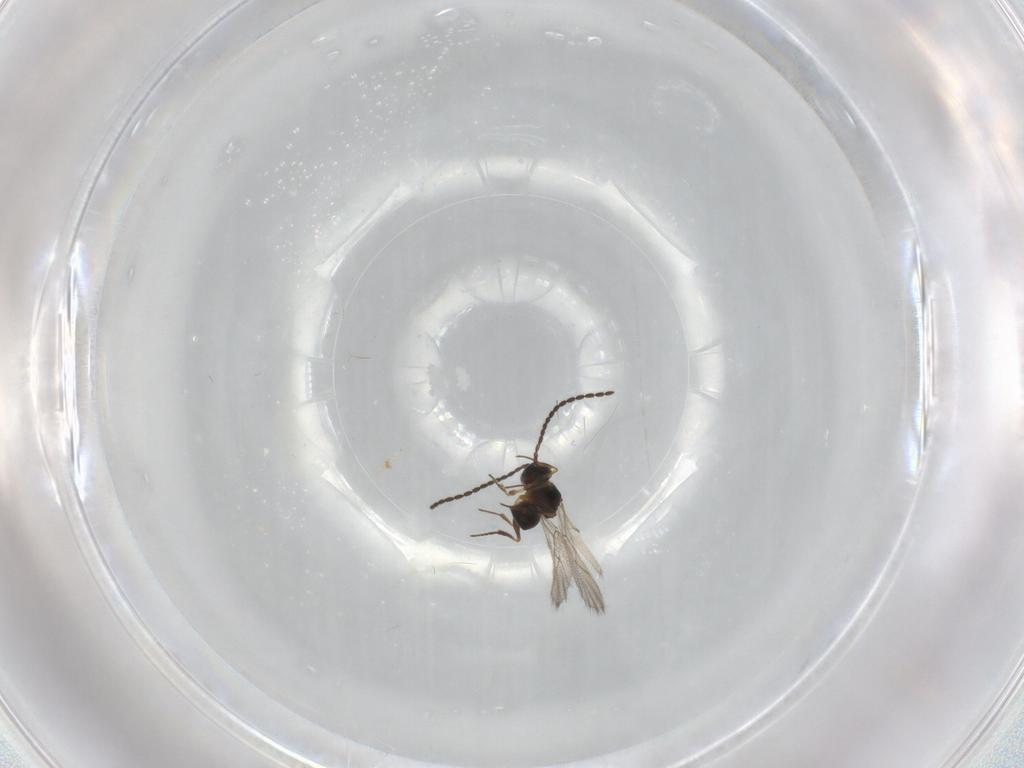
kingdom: Animalia
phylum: Arthropoda
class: Insecta
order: Hymenoptera
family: Figitidae
